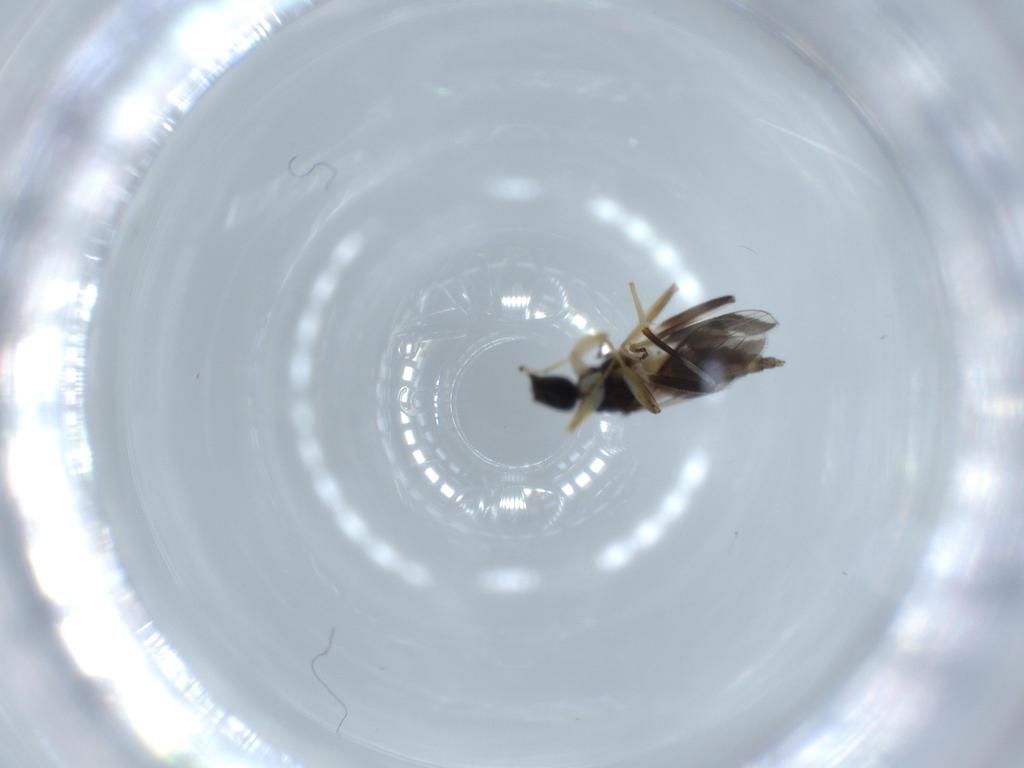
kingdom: Animalia
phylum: Arthropoda
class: Insecta
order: Diptera
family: Hybotidae
